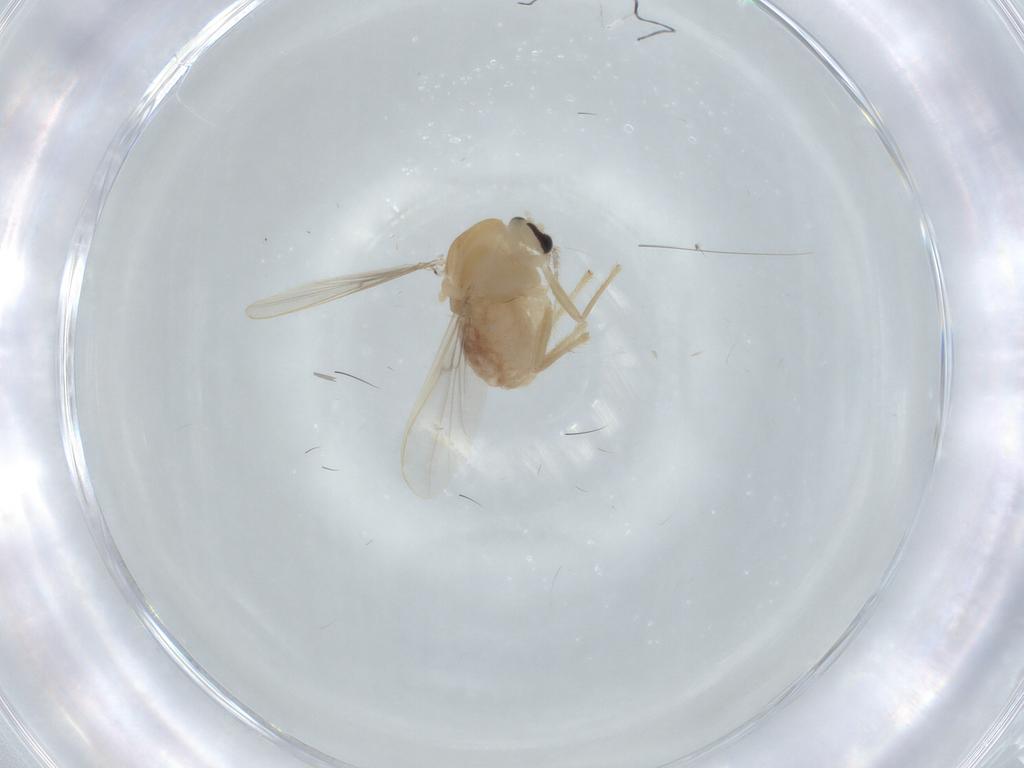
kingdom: Animalia
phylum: Arthropoda
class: Insecta
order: Diptera
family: Chironomidae
